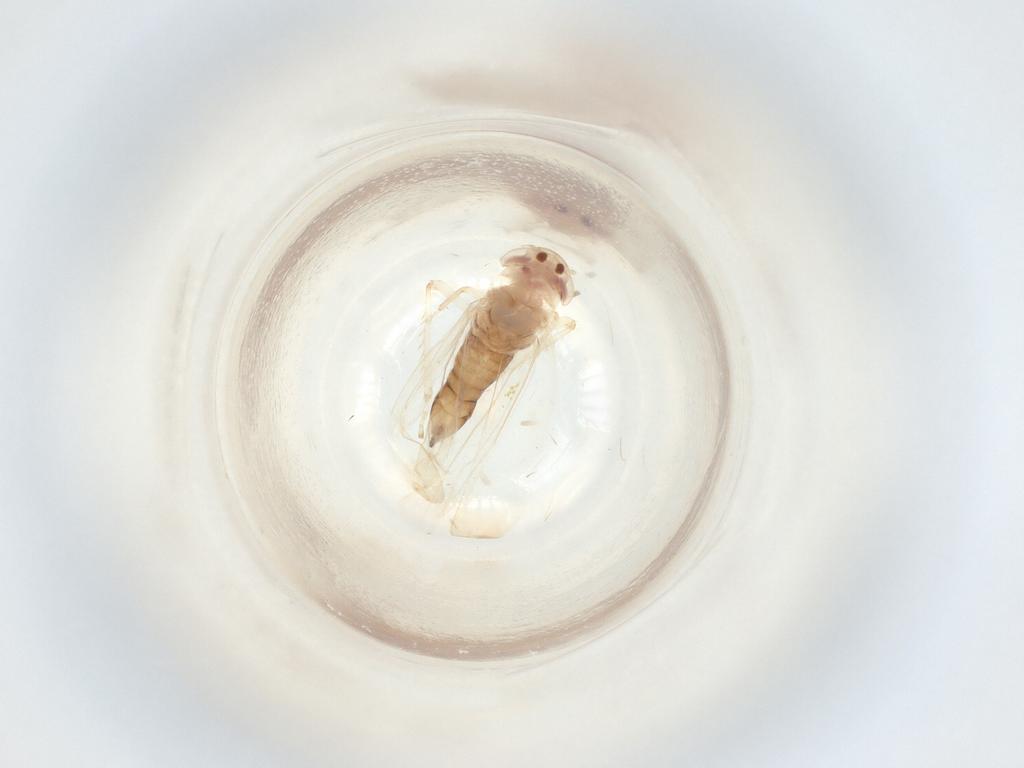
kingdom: Animalia
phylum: Arthropoda
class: Insecta
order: Hemiptera
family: Cicadellidae
